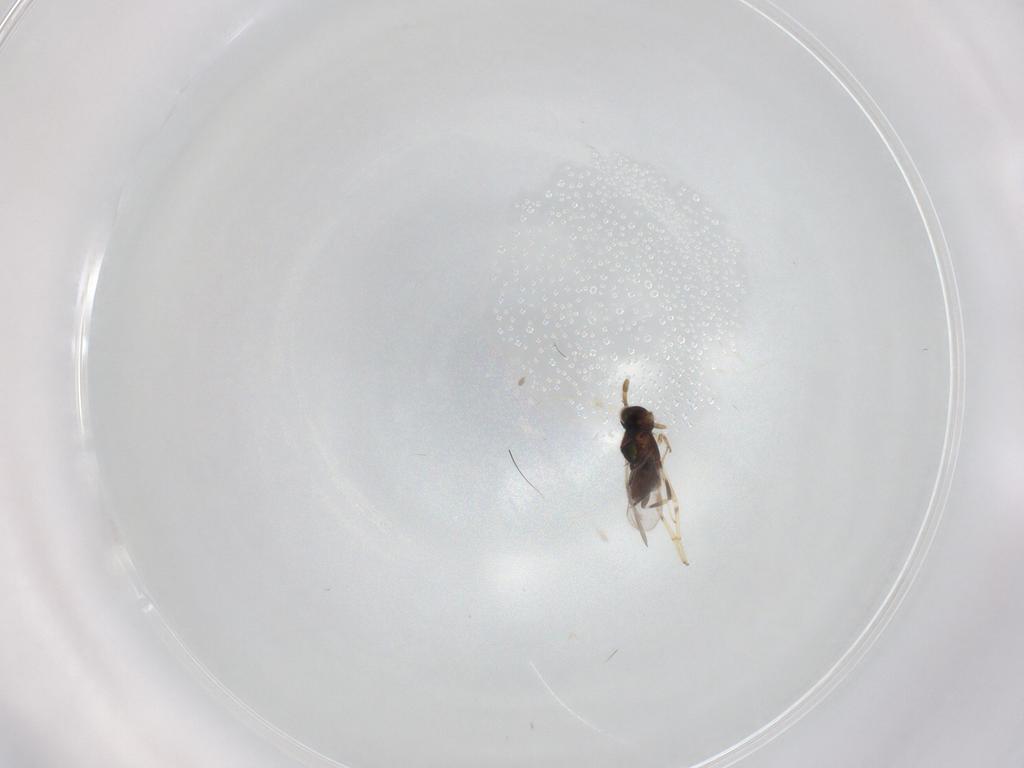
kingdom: Animalia
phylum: Arthropoda
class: Insecta
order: Hymenoptera
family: Encyrtidae
